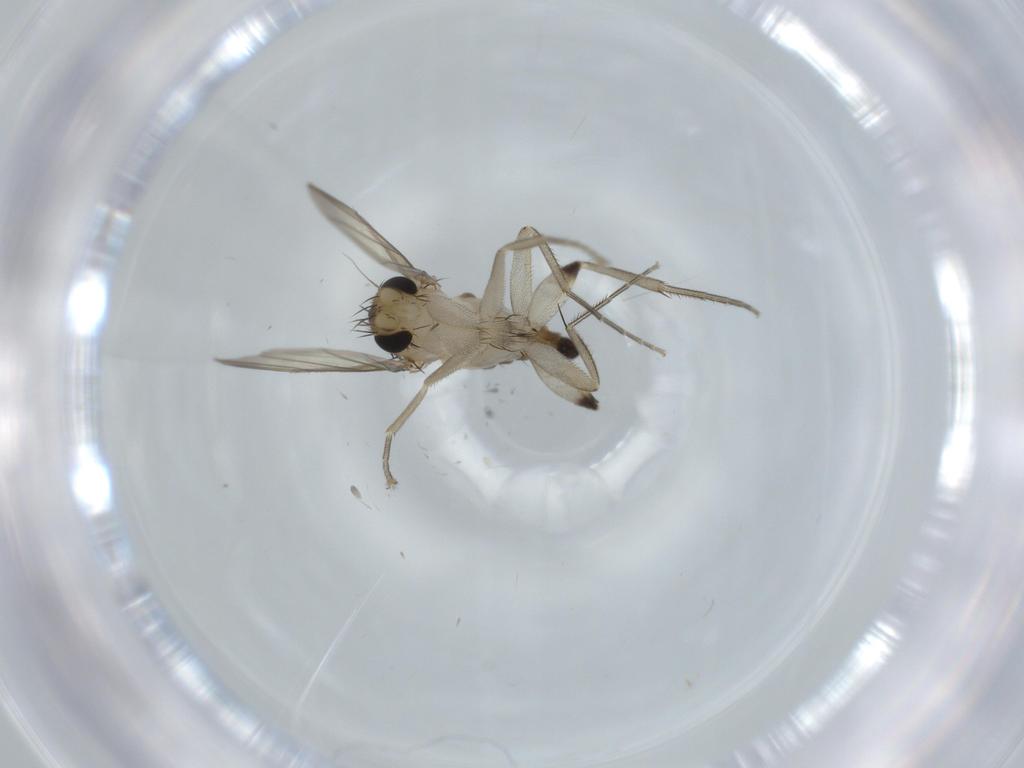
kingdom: Animalia
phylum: Arthropoda
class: Insecta
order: Diptera
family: Phoridae
